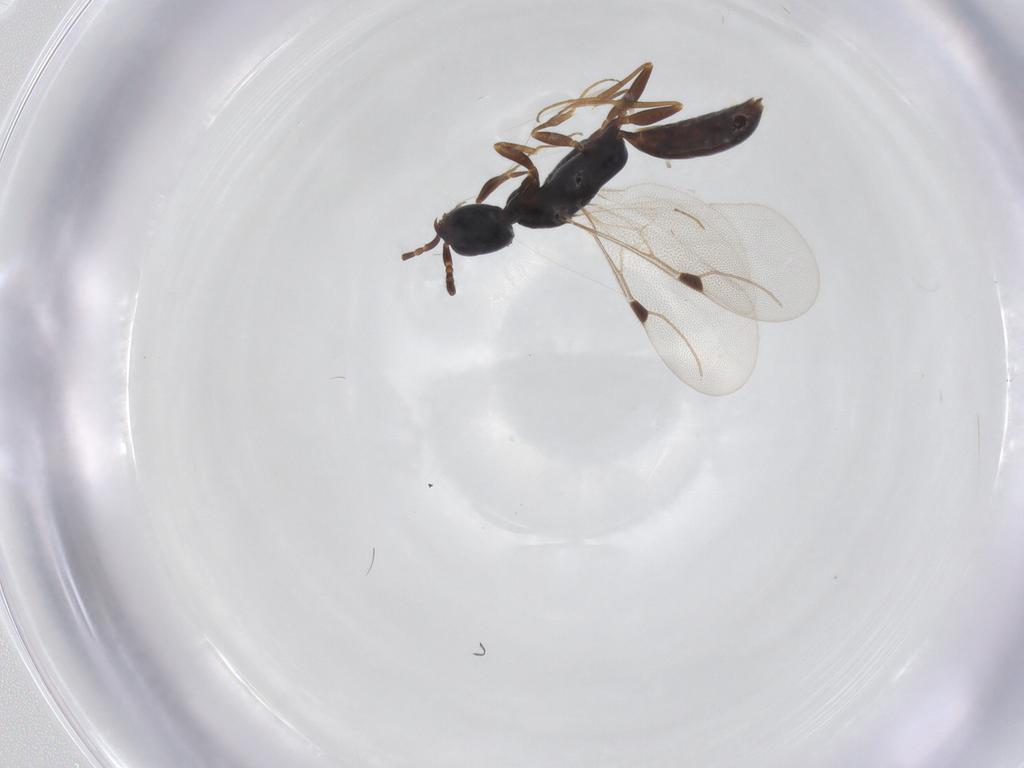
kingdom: Animalia
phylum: Arthropoda
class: Insecta
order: Hymenoptera
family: Bethylidae
